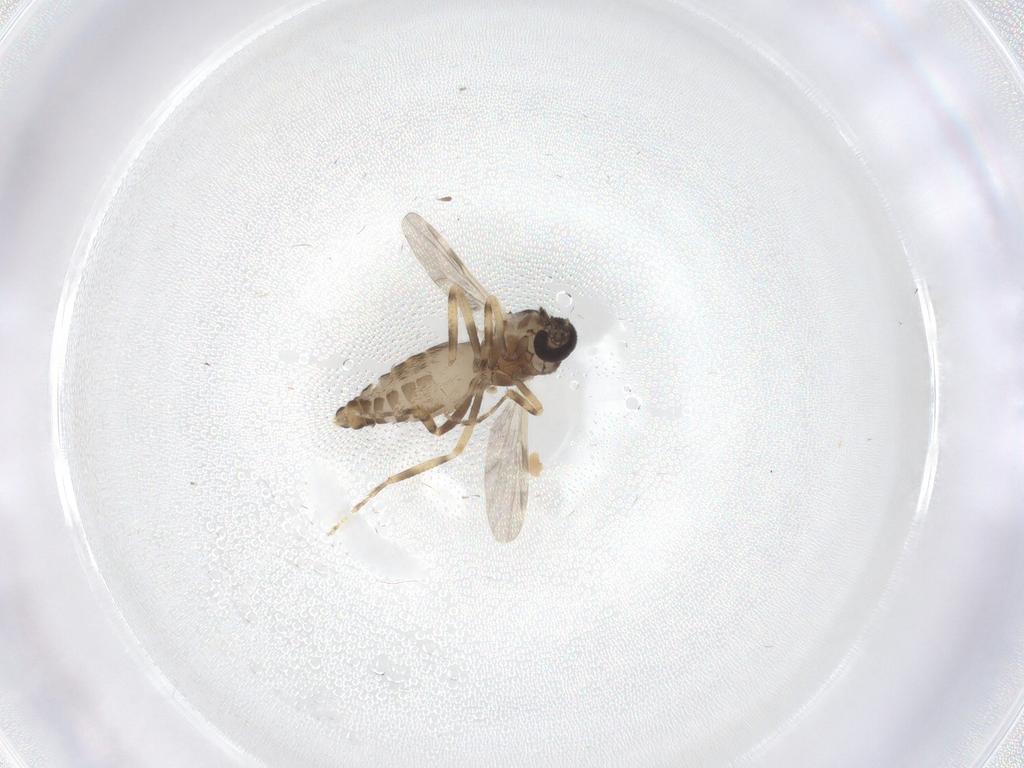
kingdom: Animalia
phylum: Arthropoda
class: Insecta
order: Diptera
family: Ceratopogonidae
